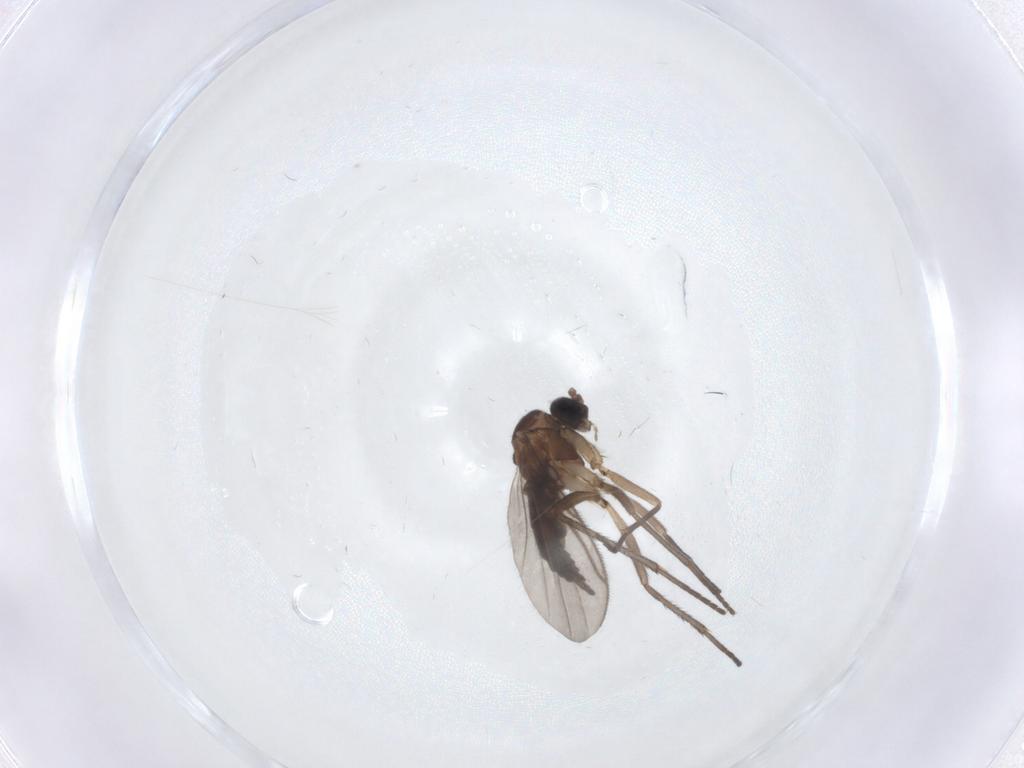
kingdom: Animalia
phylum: Arthropoda
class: Insecta
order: Diptera
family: Sciaridae
